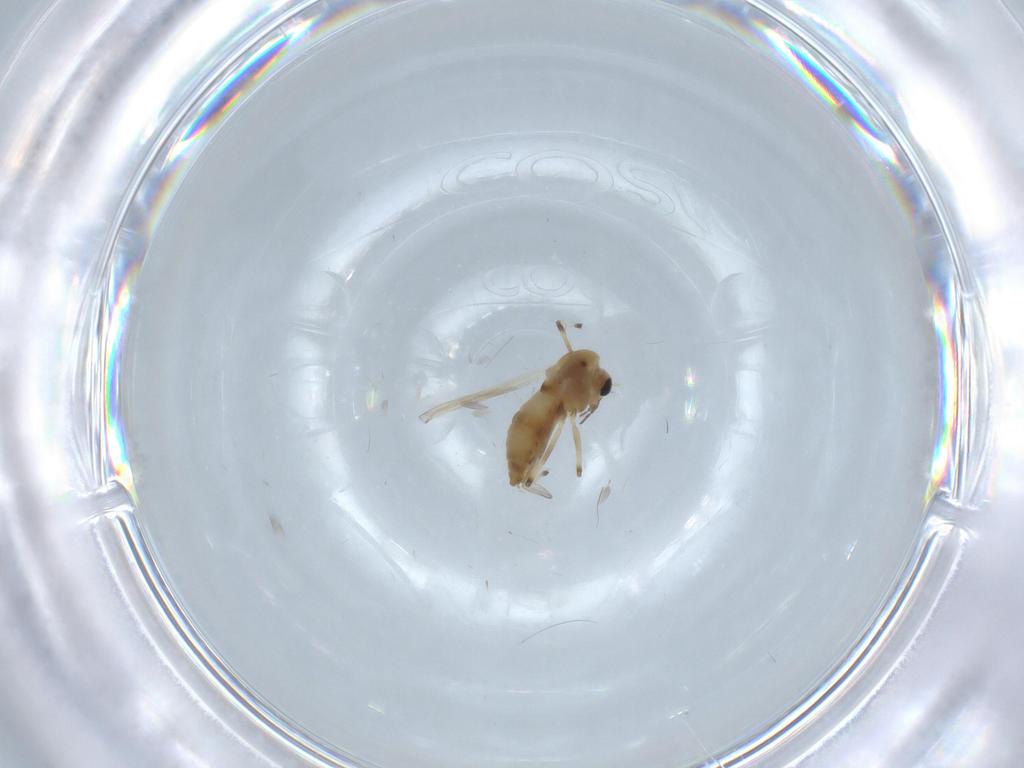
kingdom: Animalia
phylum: Arthropoda
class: Insecta
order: Diptera
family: Chironomidae
